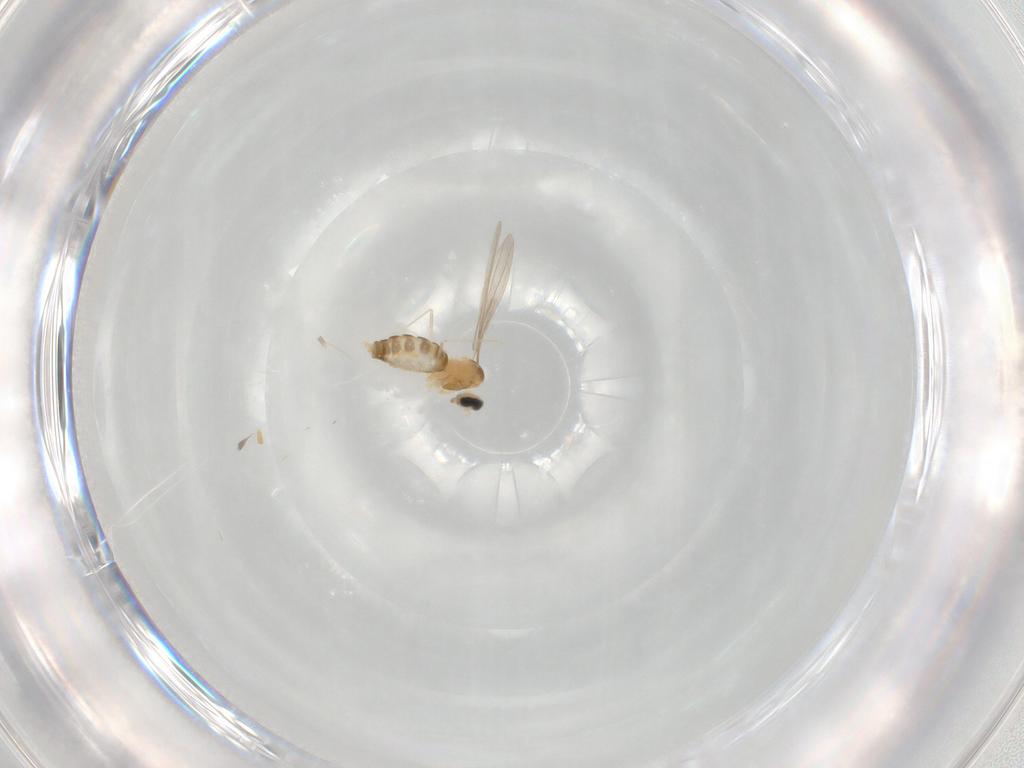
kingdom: Animalia
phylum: Arthropoda
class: Insecta
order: Diptera
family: Cecidomyiidae
